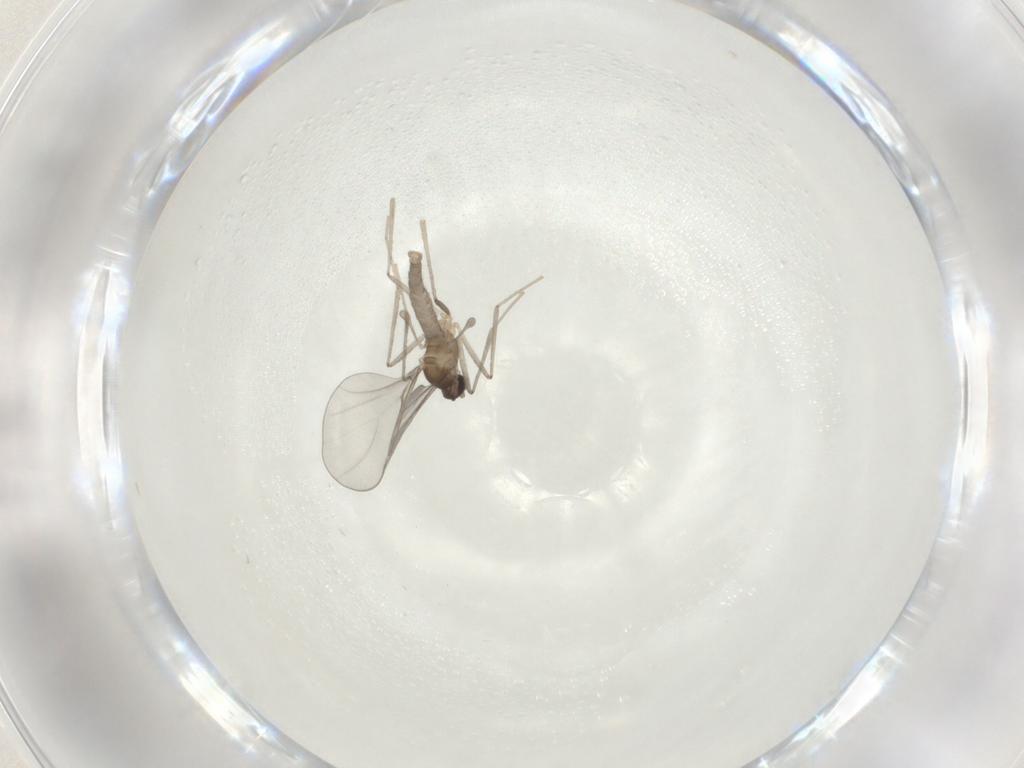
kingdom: Animalia
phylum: Arthropoda
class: Insecta
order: Diptera
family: Cecidomyiidae
